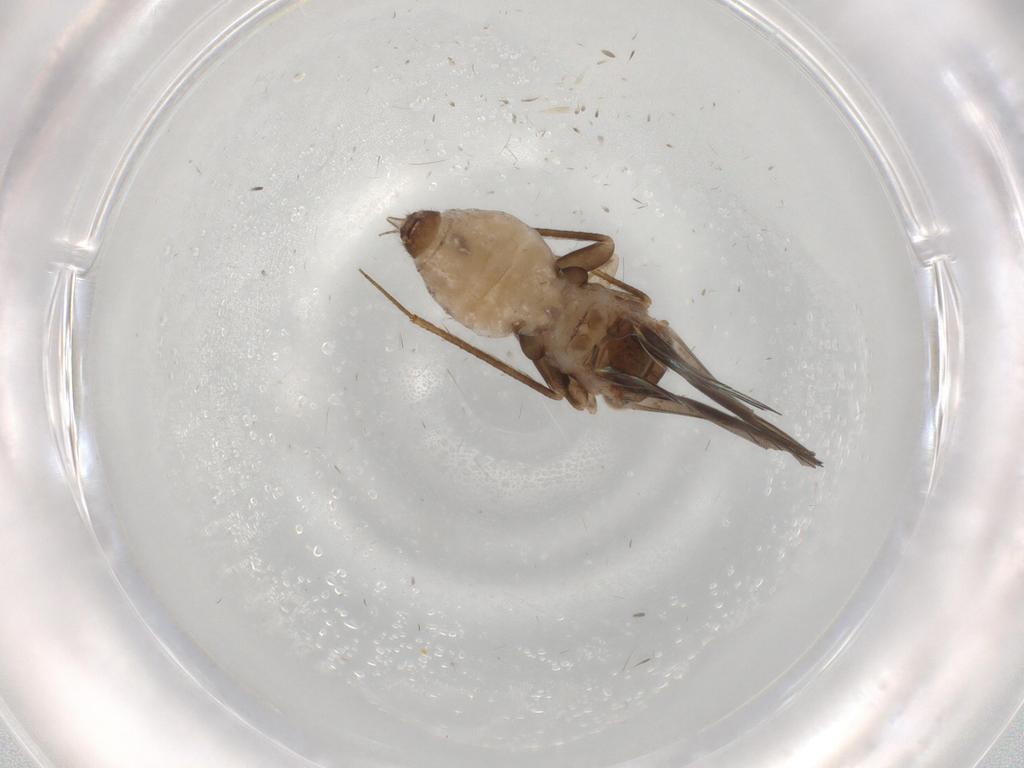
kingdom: Animalia
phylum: Arthropoda
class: Insecta
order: Psocodea
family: Lepidopsocidae
